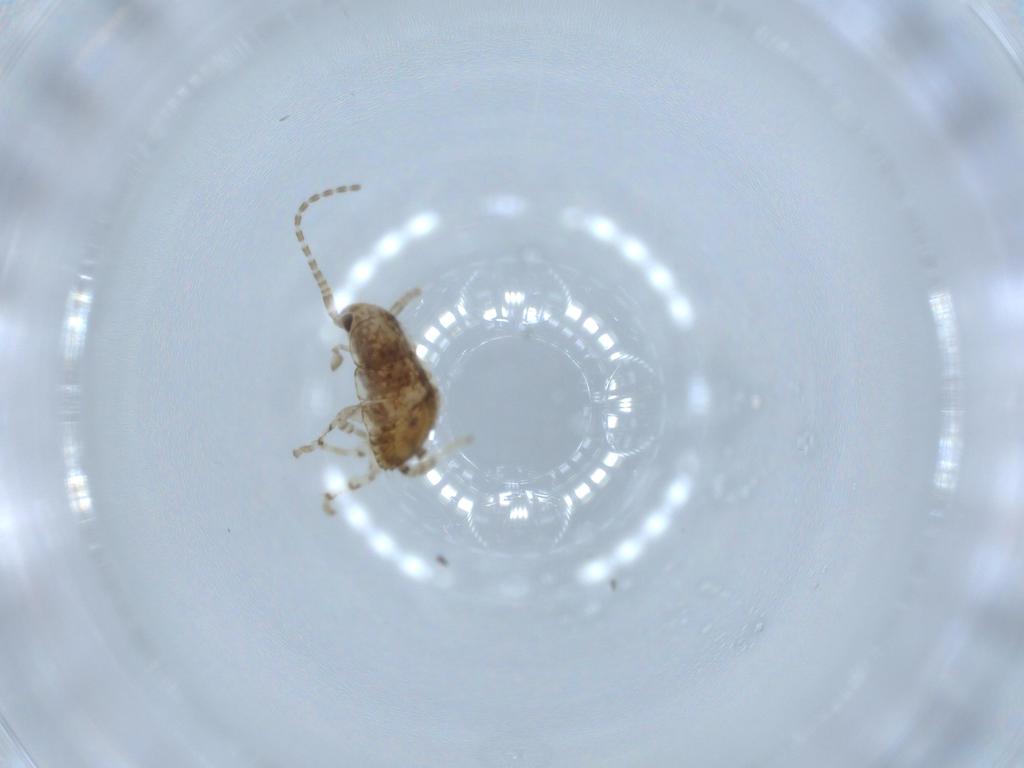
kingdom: Animalia
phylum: Arthropoda
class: Insecta
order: Blattodea
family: Ectobiidae
